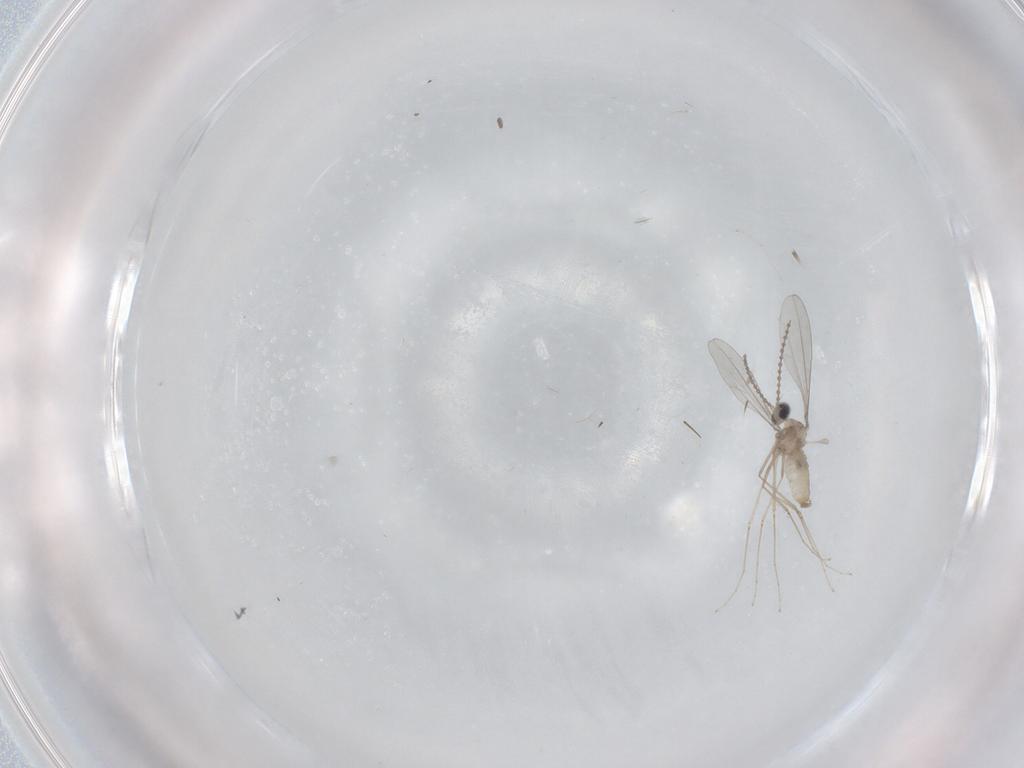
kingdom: Animalia
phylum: Arthropoda
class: Insecta
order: Diptera
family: Cecidomyiidae
